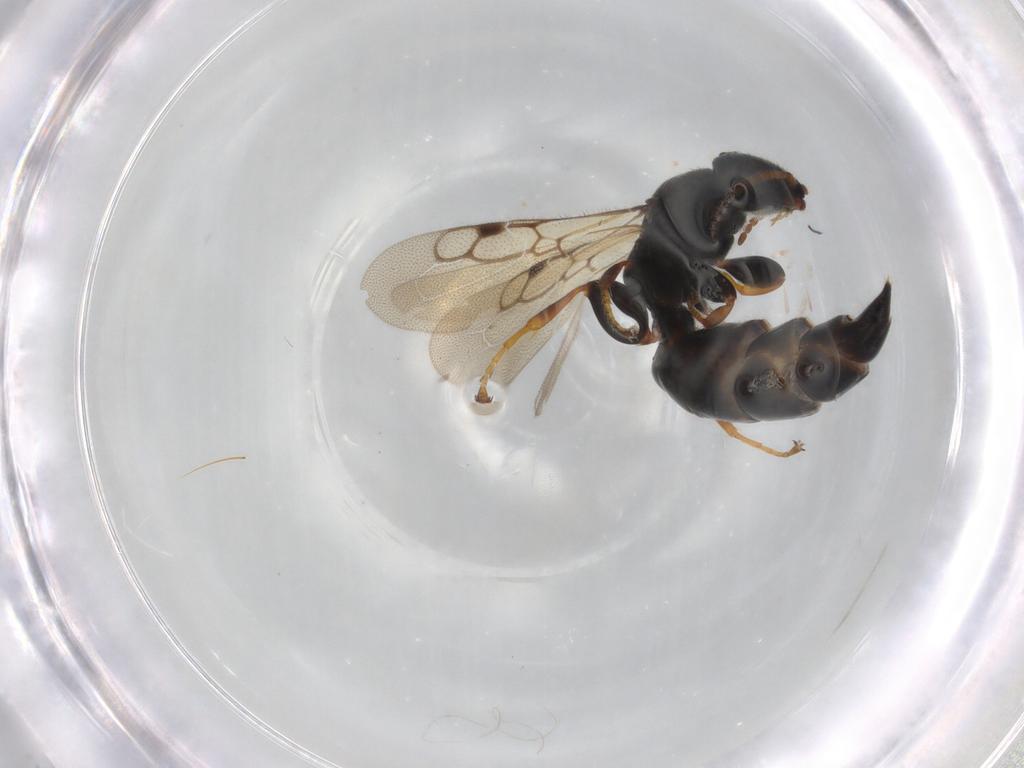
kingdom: Animalia
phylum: Arthropoda
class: Insecta
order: Hymenoptera
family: Bethylidae
